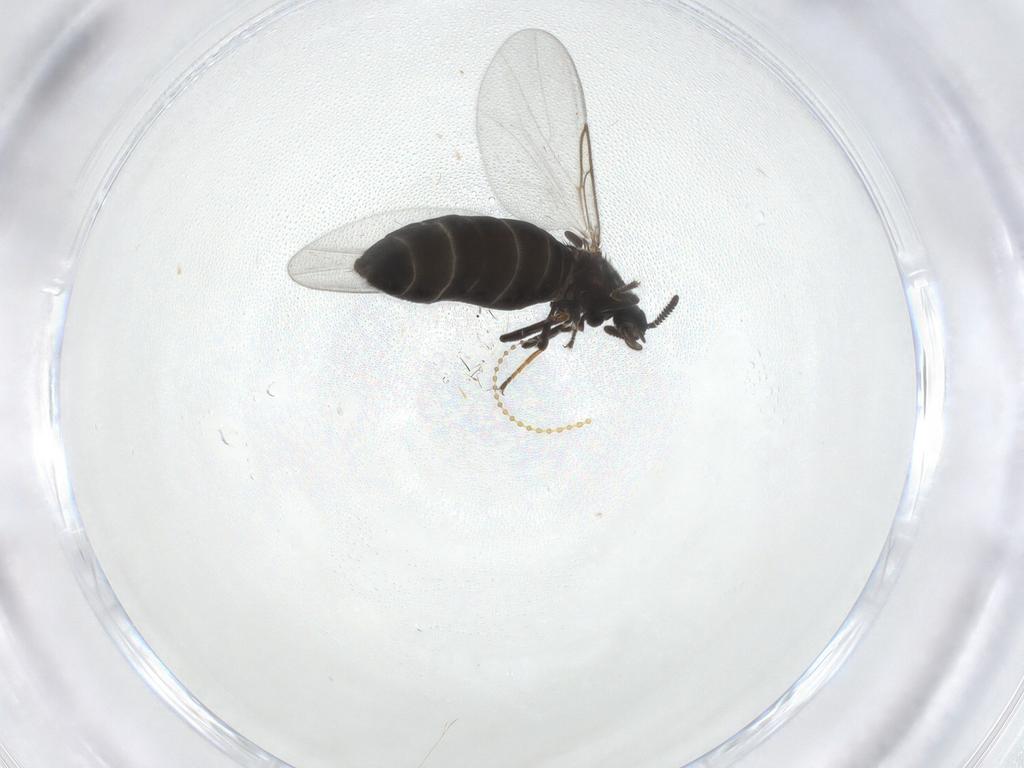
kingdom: Animalia
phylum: Arthropoda
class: Insecta
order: Diptera
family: Scatopsidae
